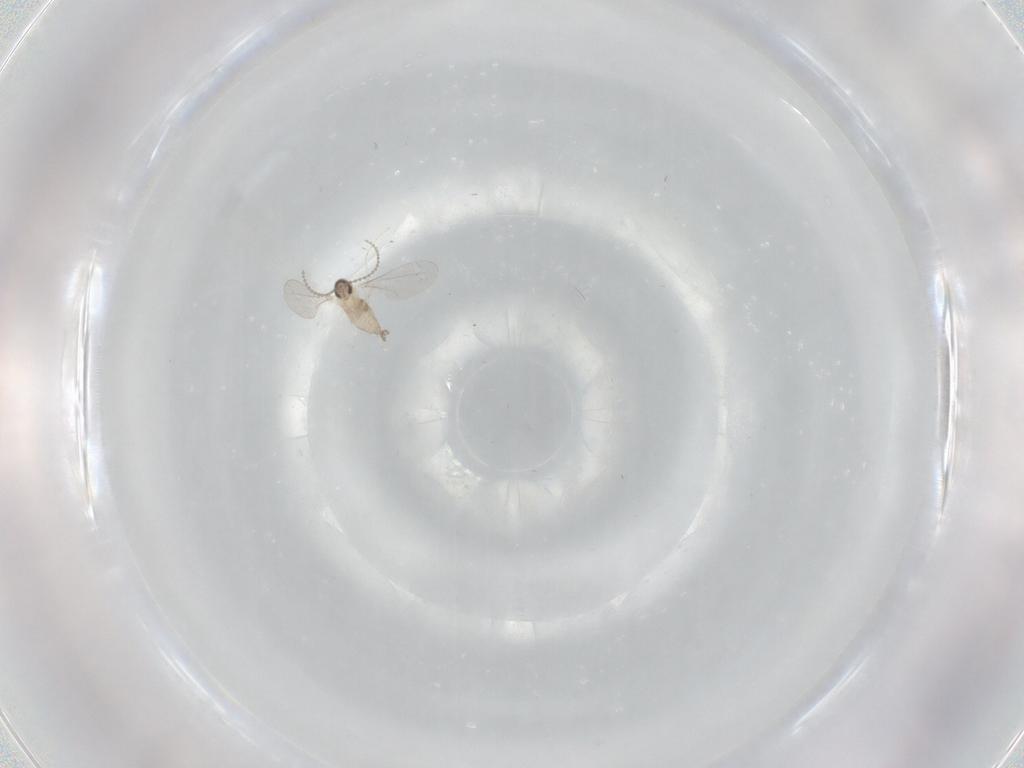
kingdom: Animalia
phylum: Arthropoda
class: Insecta
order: Diptera
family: Cecidomyiidae
